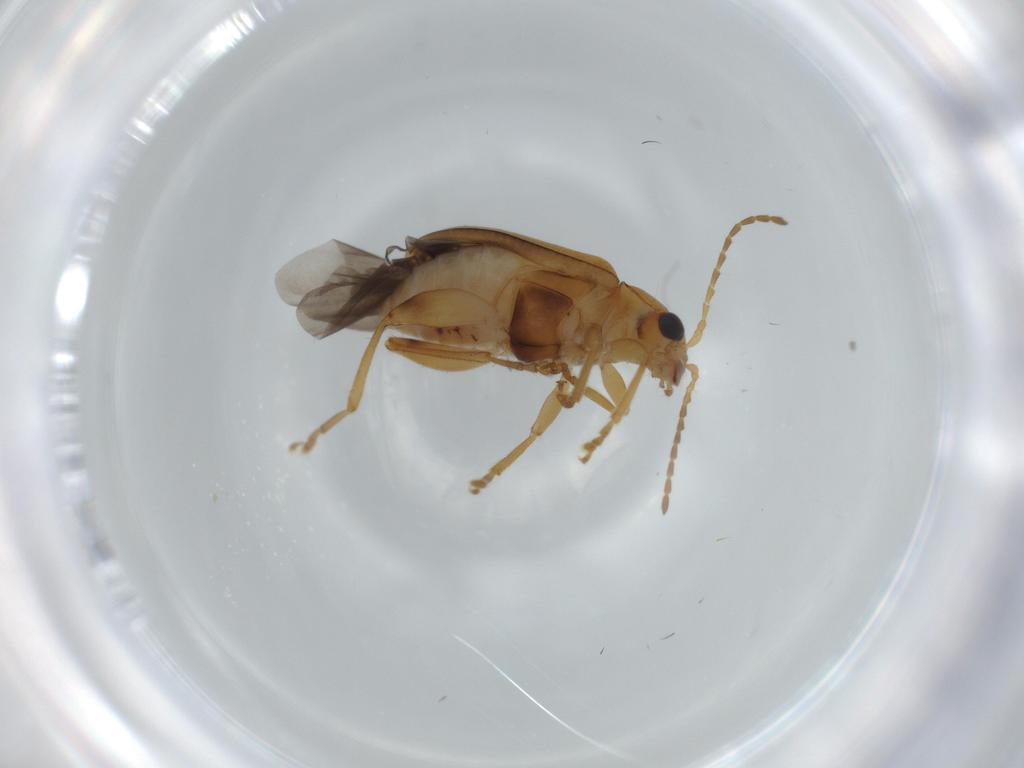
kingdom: Animalia
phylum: Arthropoda
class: Insecta
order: Coleoptera
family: Chrysomelidae
